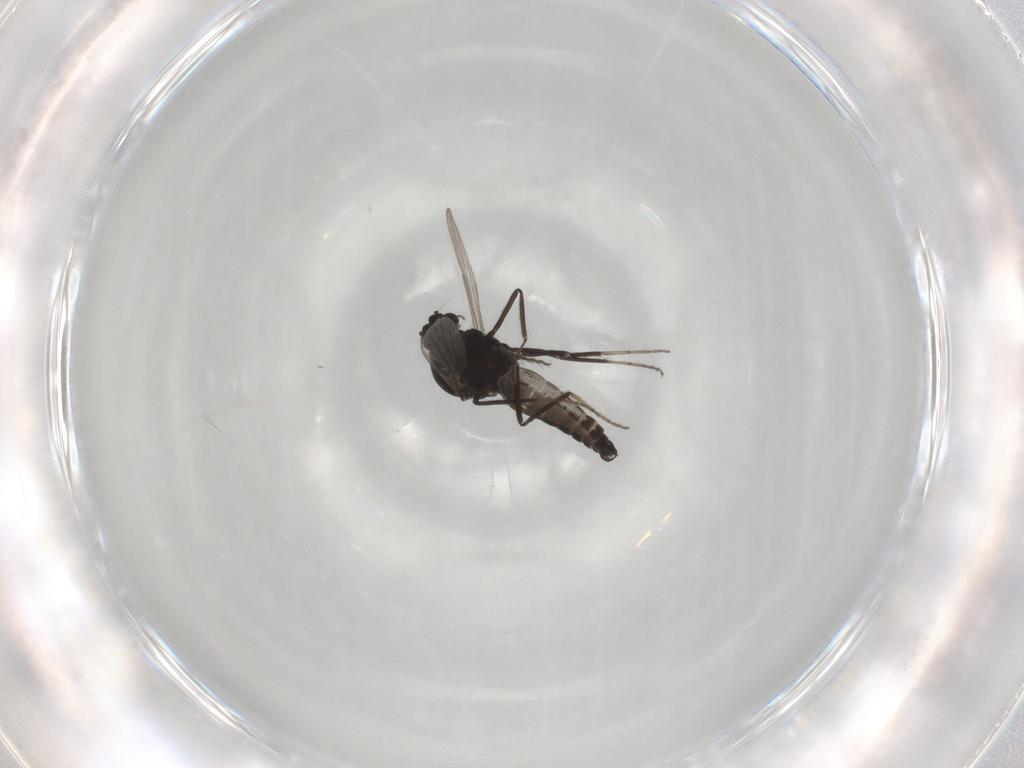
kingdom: Animalia
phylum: Arthropoda
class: Insecta
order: Diptera
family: Ceratopogonidae
